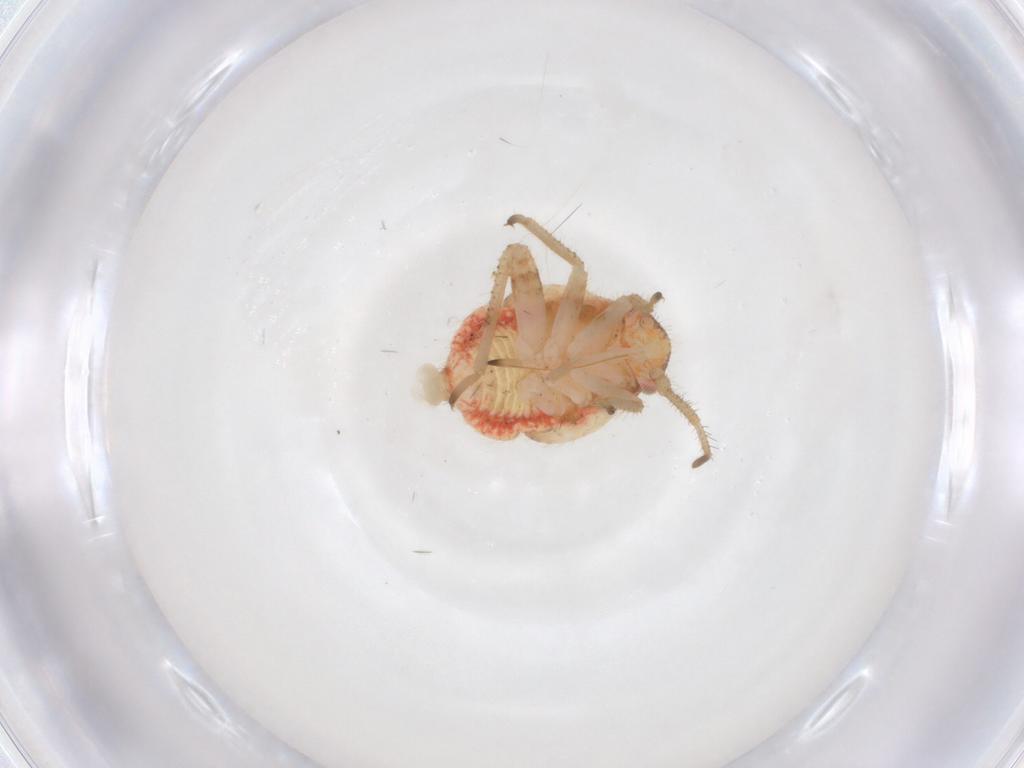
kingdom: Animalia
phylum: Arthropoda
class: Insecta
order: Hemiptera
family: Miridae
